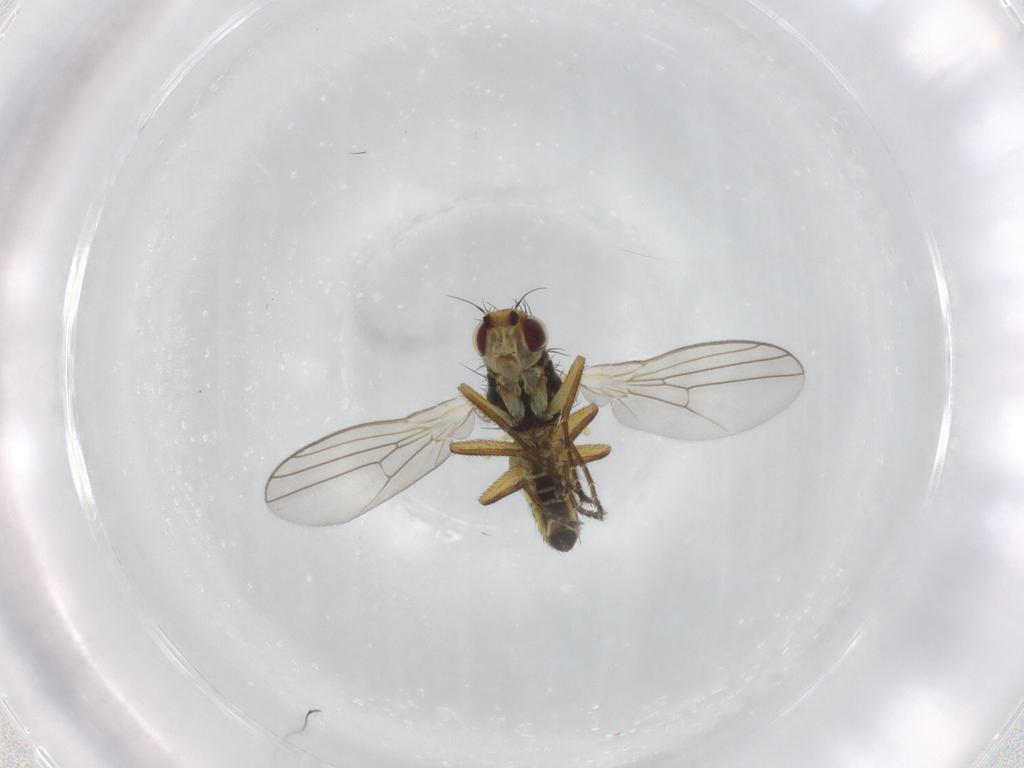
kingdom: Animalia
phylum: Arthropoda
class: Insecta
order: Diptera
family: Agromyzidae
